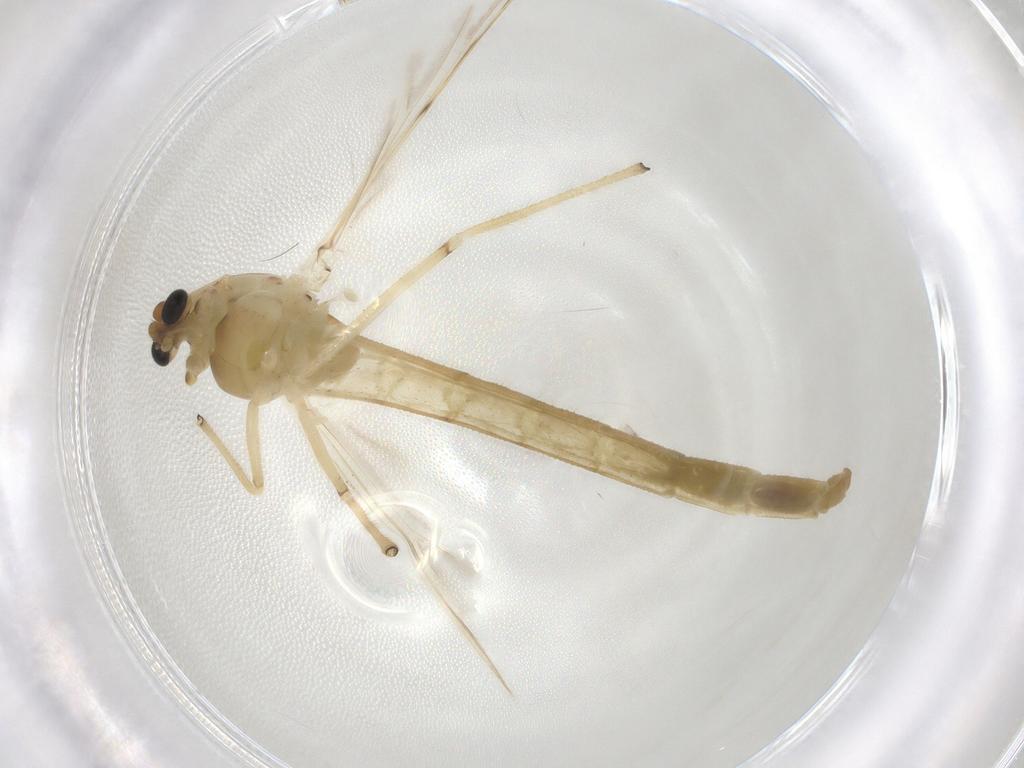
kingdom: Animalia
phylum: Arthropoda
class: Insecta
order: Diptera
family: Chironomidae
